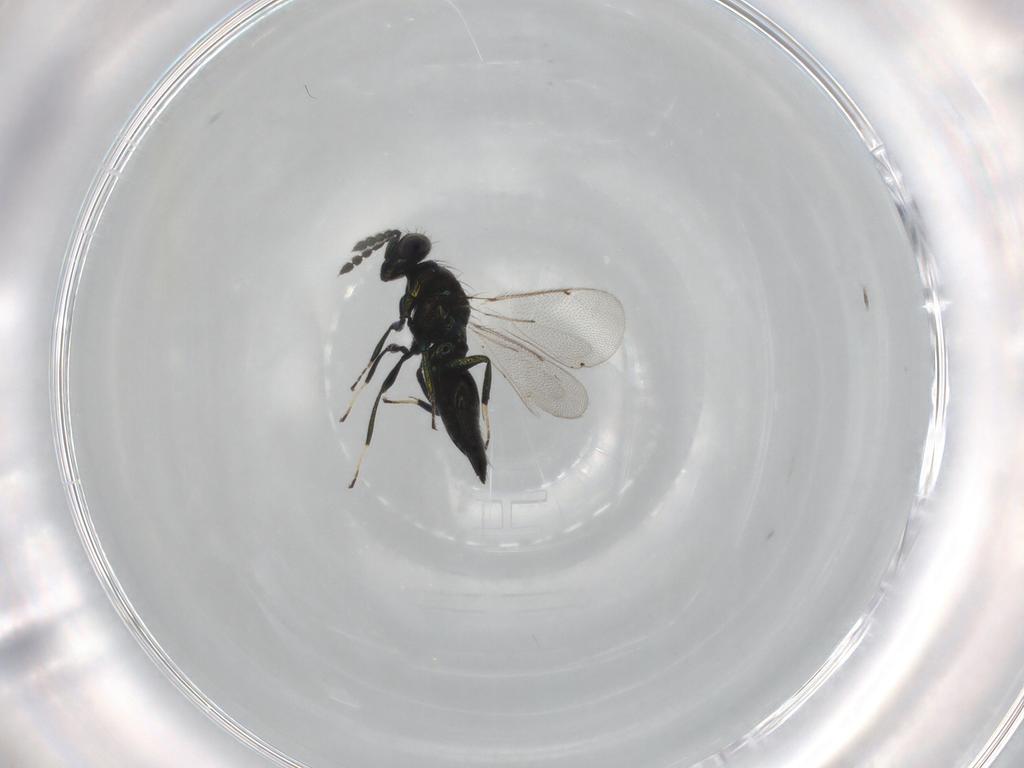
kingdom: Animalia
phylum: Arthropoda
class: Insecta
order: Hymenoptera
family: Eulophidae
